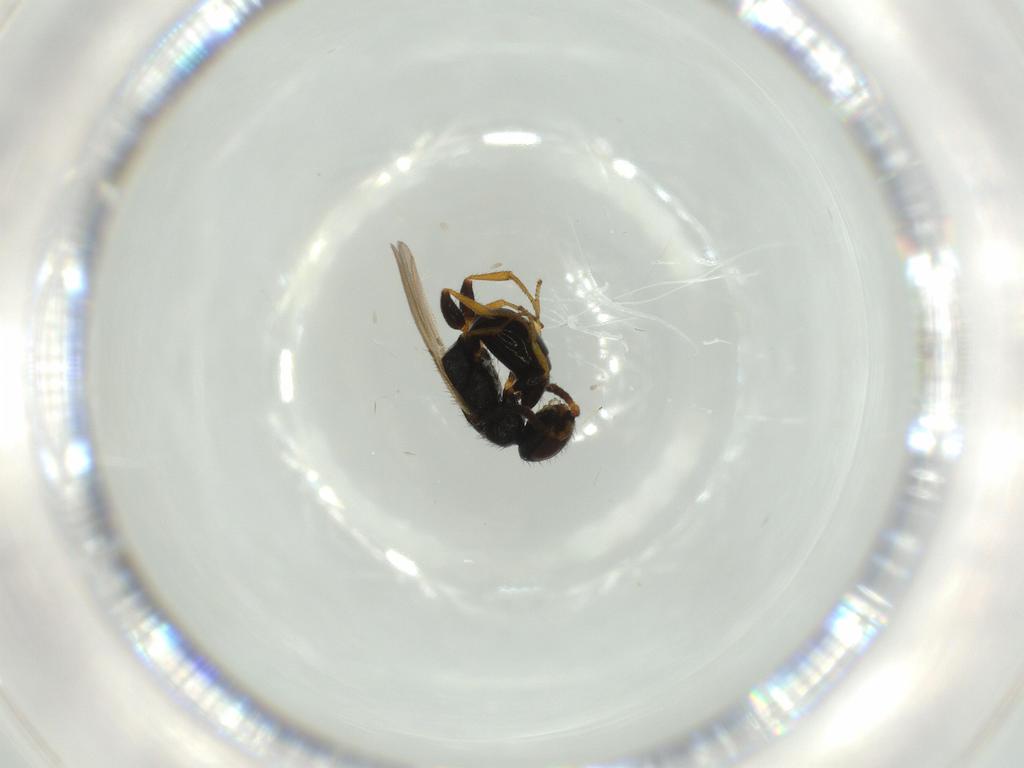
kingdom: Animalia
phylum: Arthropoda
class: Insecta
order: Hymenoptera
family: Bethylidae
